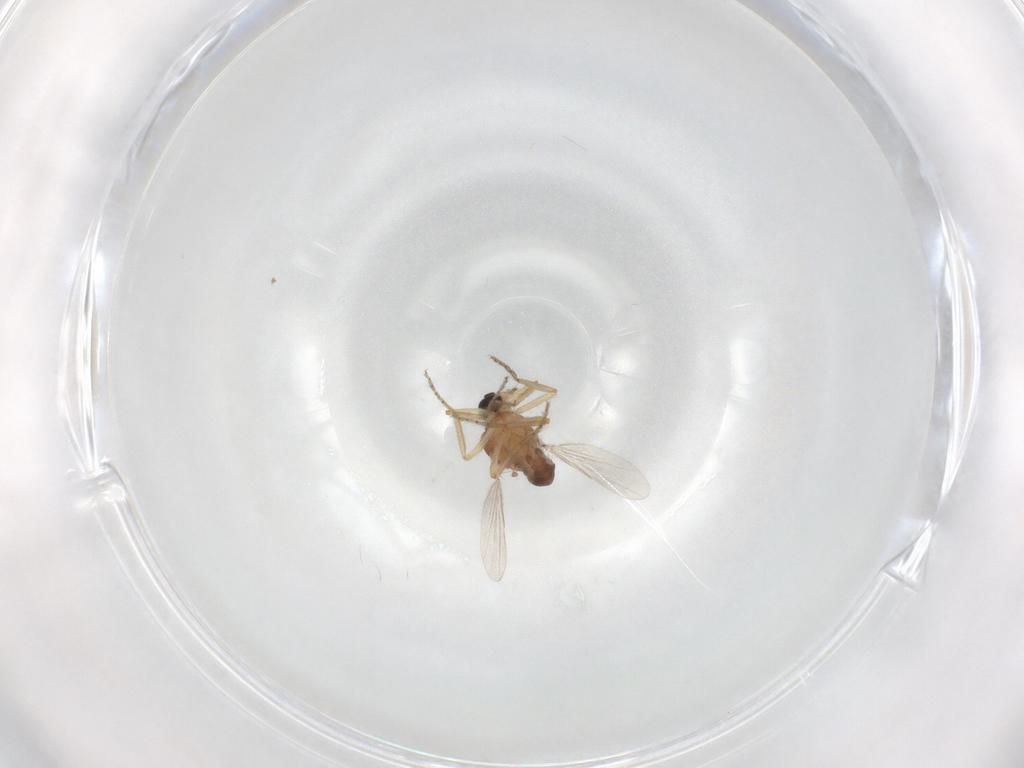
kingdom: Animalia
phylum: Arthropoda
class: Insecta
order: Diptera
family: Ceratopogonidae
